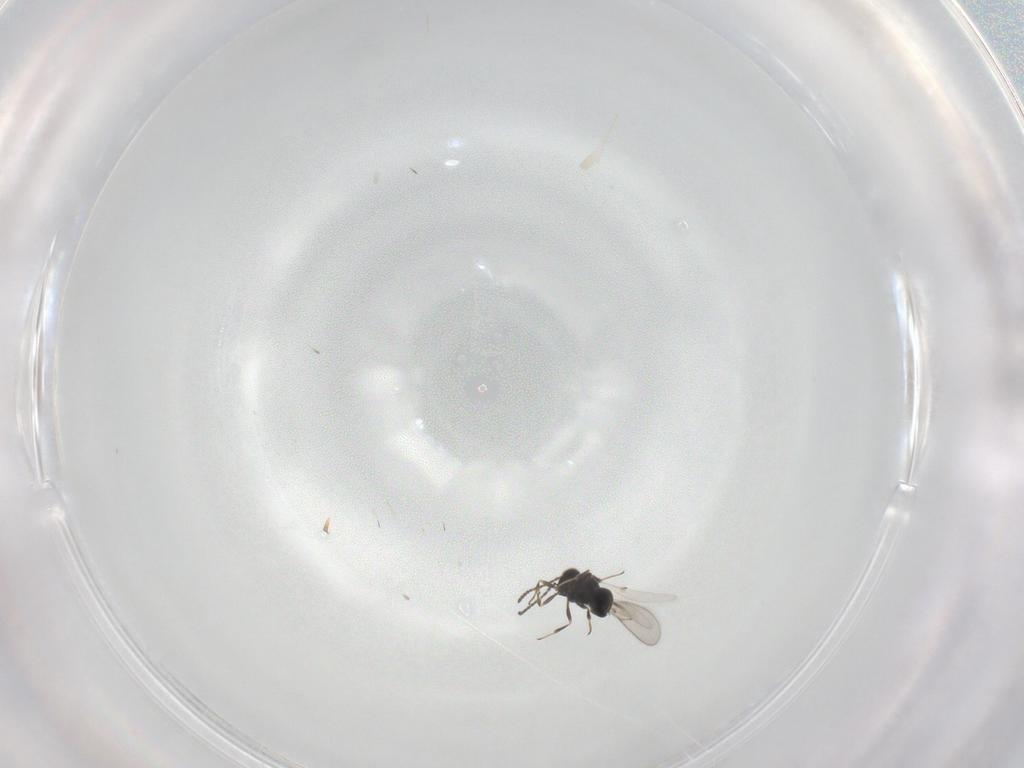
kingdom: Animalia
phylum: Arthropoda
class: Insecta
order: Hymenoptera
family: Scelionidae
